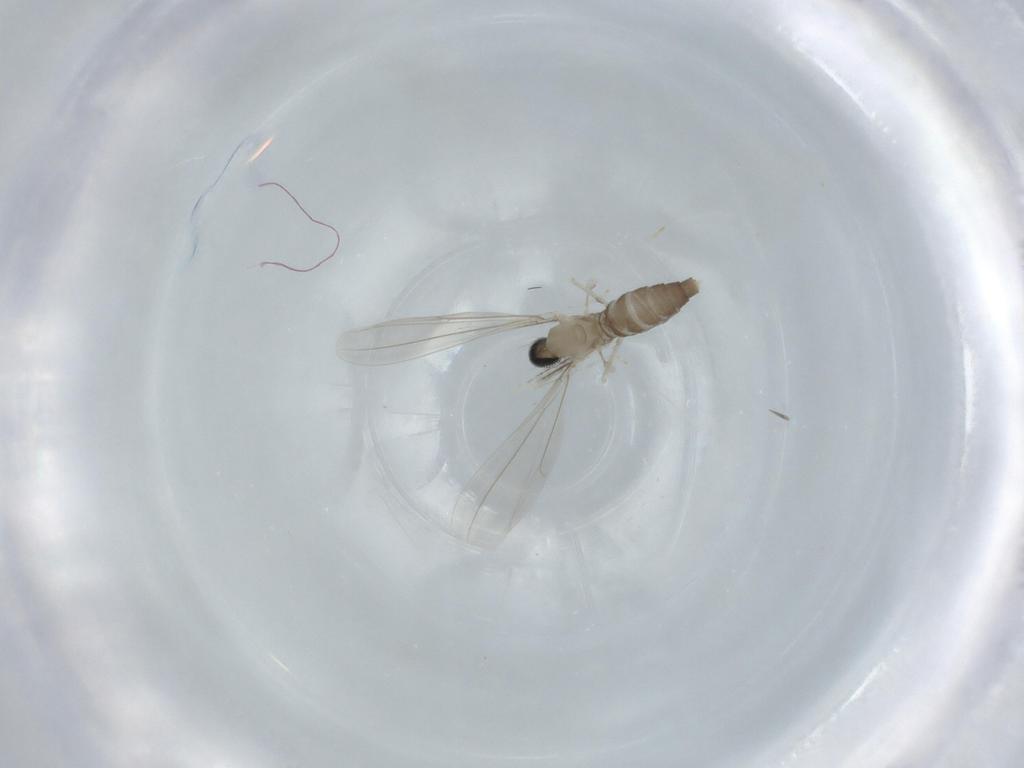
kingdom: Animalia
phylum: Arthropoda
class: Insecta
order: Diptera
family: Cecidomyiidae
